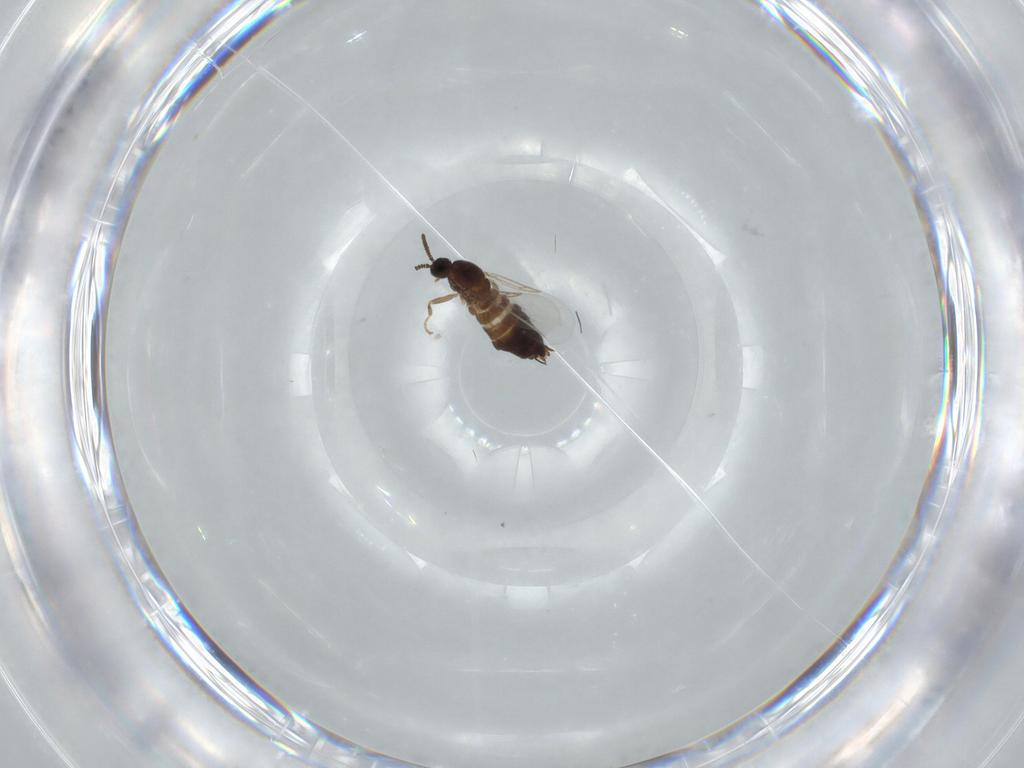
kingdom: Animalia
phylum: Arthropoda
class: Insecta
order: Diptera
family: Scatopsidae
